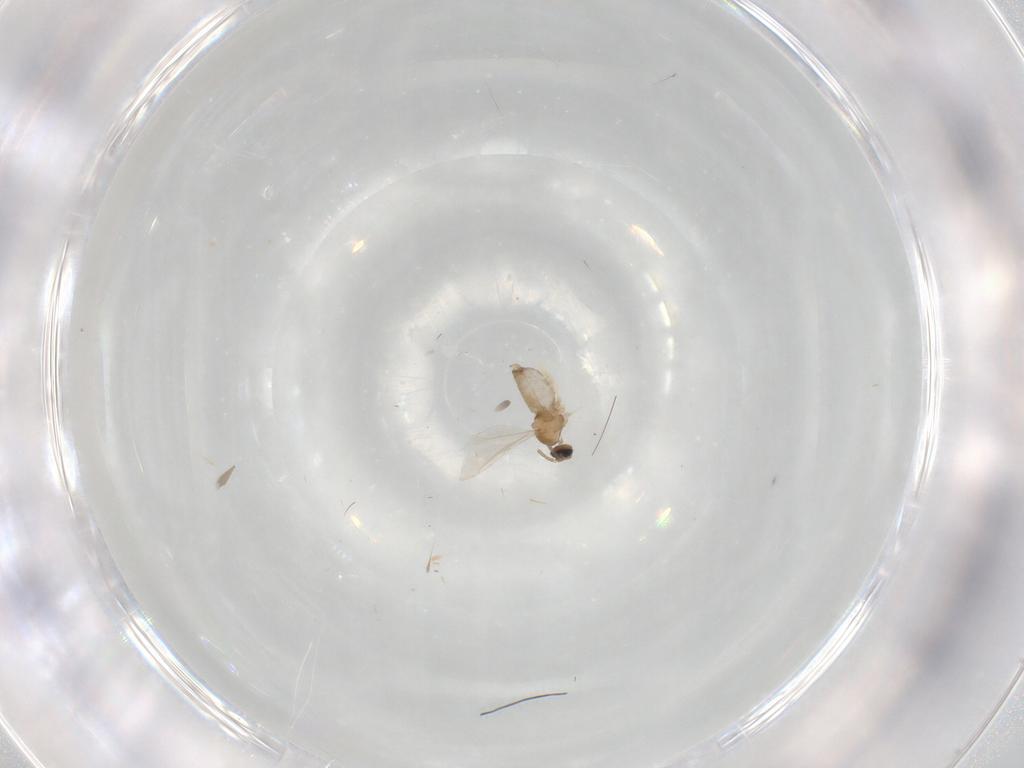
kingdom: Animalia
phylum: Arthropoda
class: Insecta
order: Diptera
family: Cecidomyiidae
